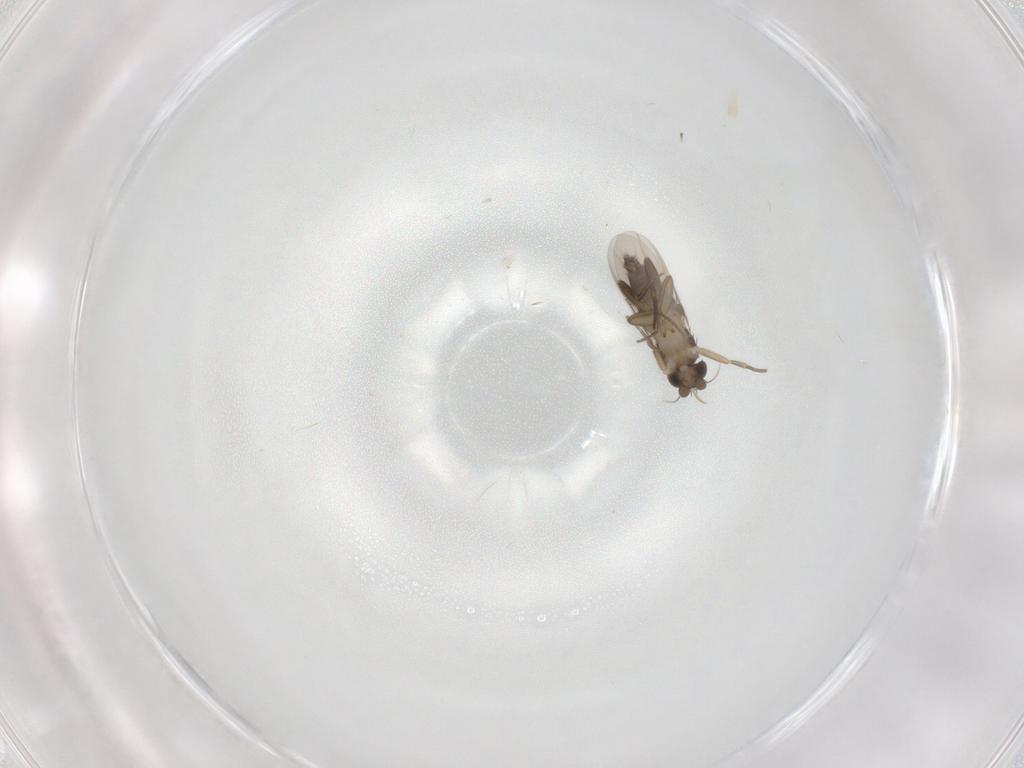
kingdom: Animalia
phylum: Arthropoda
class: Insecta
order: Diptera
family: Phoridae
